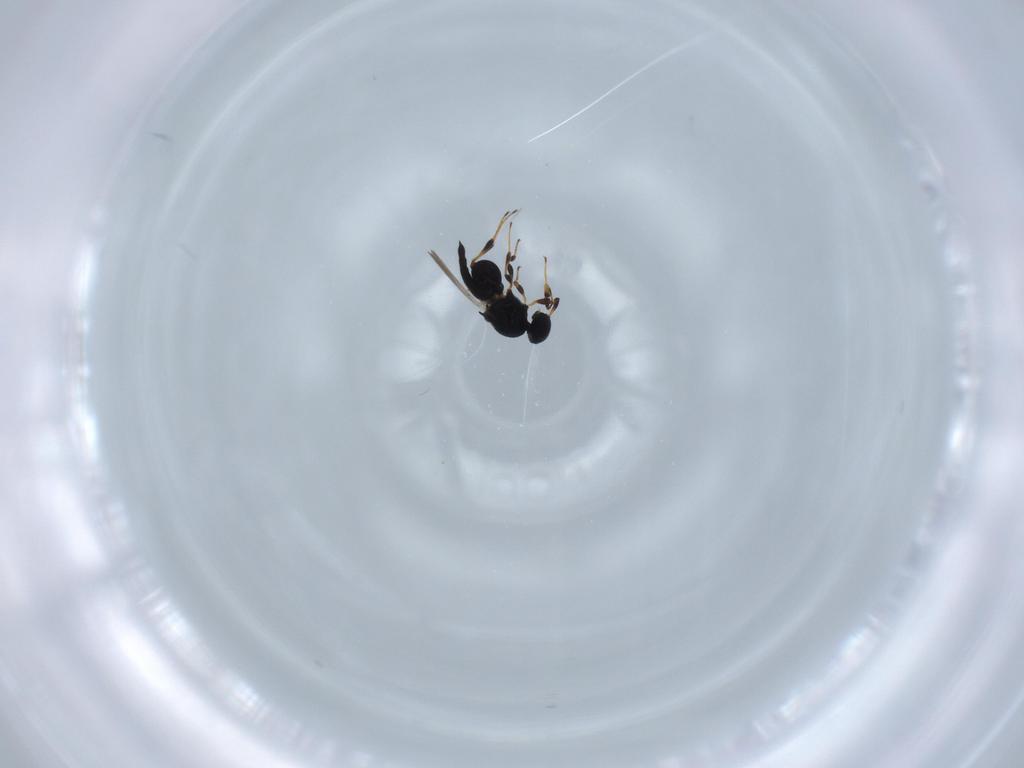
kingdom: Animalia
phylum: Arthropoda
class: Insecta
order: Hymenoptera
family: Platygastridae
